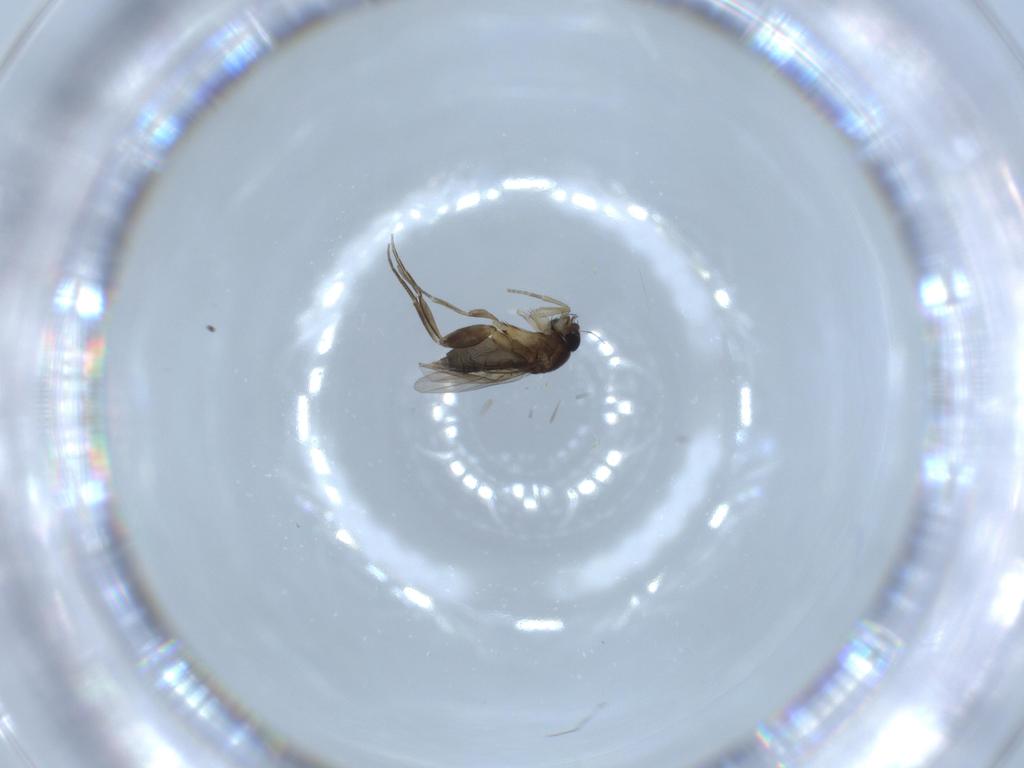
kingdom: Animalia
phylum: Arthropoda
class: Insecta
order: Diptera
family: Phoridae
